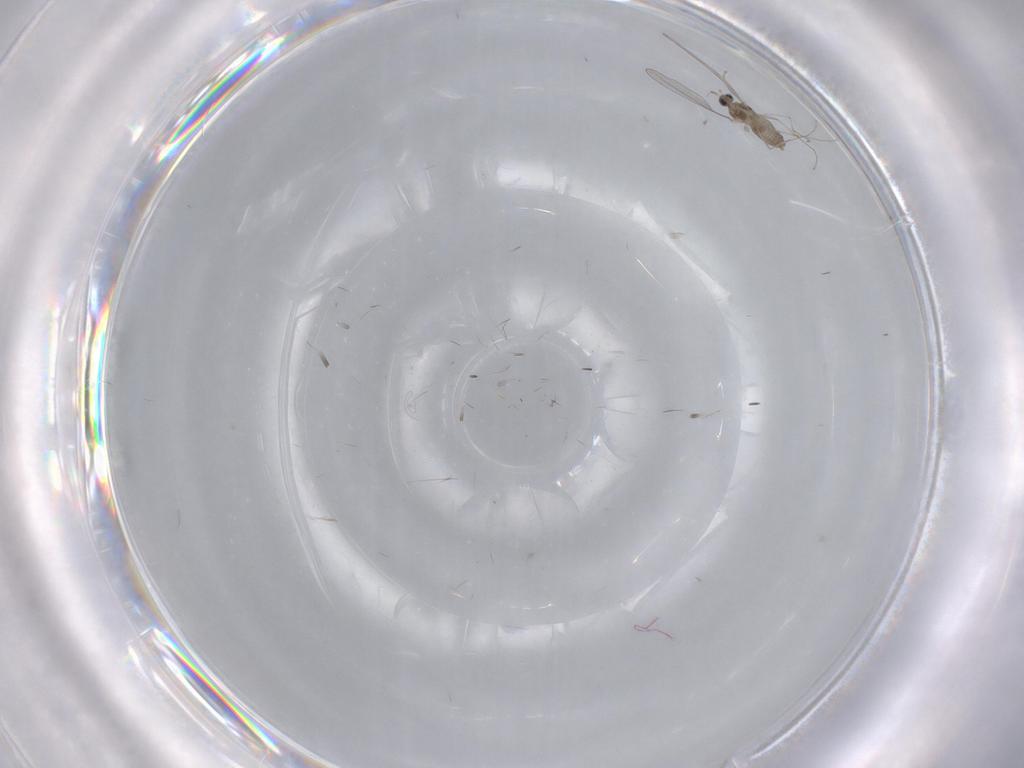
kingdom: Animalia
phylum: Arthropoda
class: Insecta
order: Diptera
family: Cecidomyiidae
